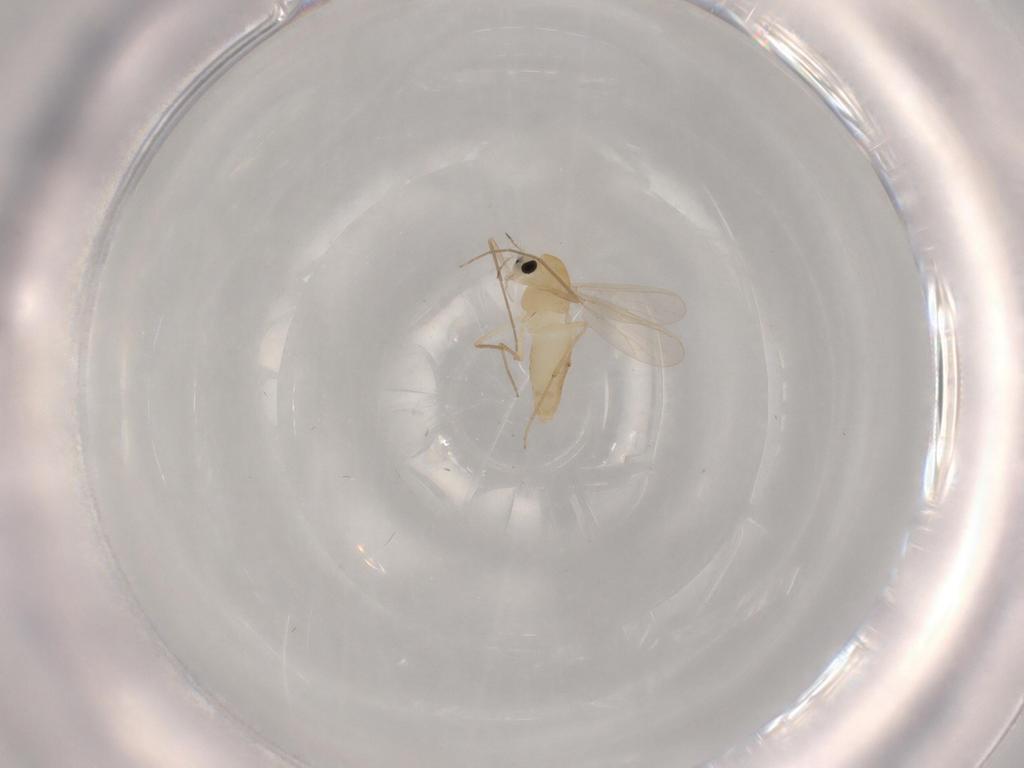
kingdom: Animalia
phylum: Arthropoda
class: Insecta
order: Diptera
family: Chironomidae
